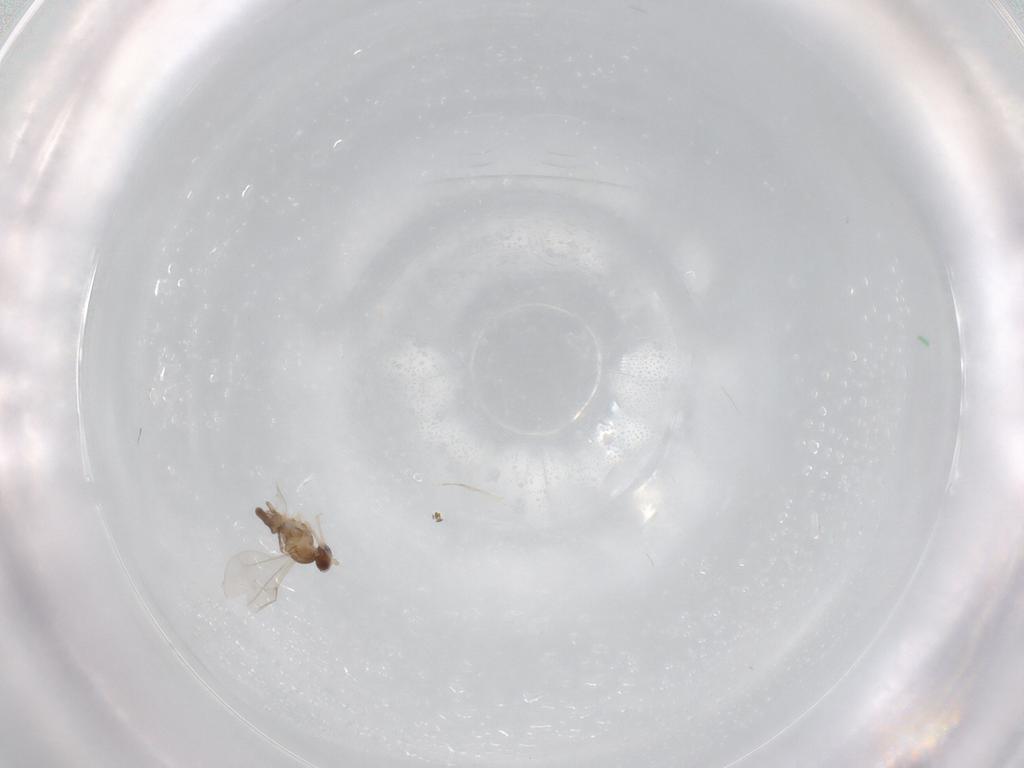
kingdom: Animalia
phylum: Arthropoda
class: Insecta
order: Diptera
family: Cecidomyiidae
